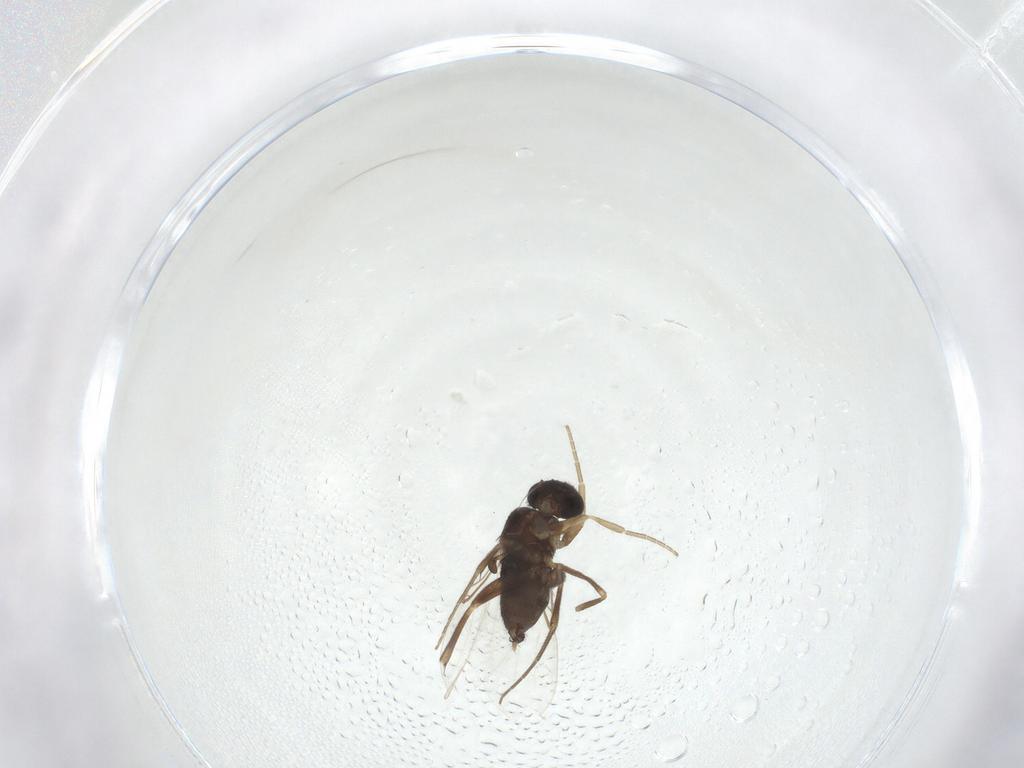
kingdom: Animalia
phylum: Arthropoda
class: Insecta
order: Diptera
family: Phoridae
